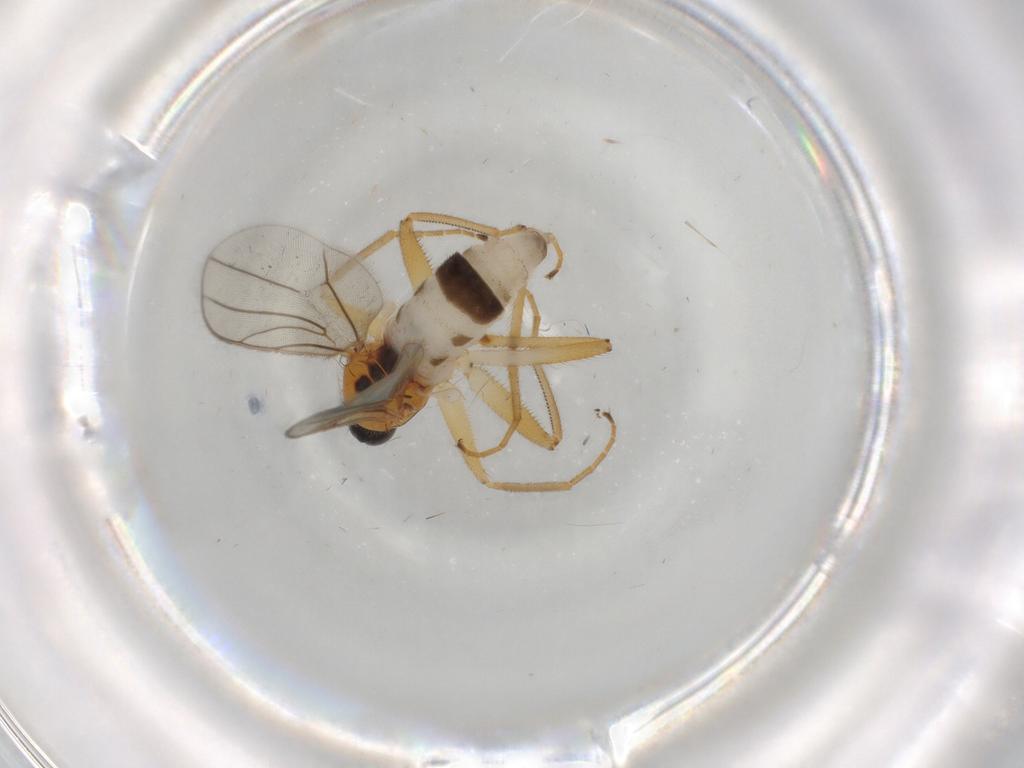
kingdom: Animalia
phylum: Arthropoda
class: Insecta
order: Diptera
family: Hybotidae
